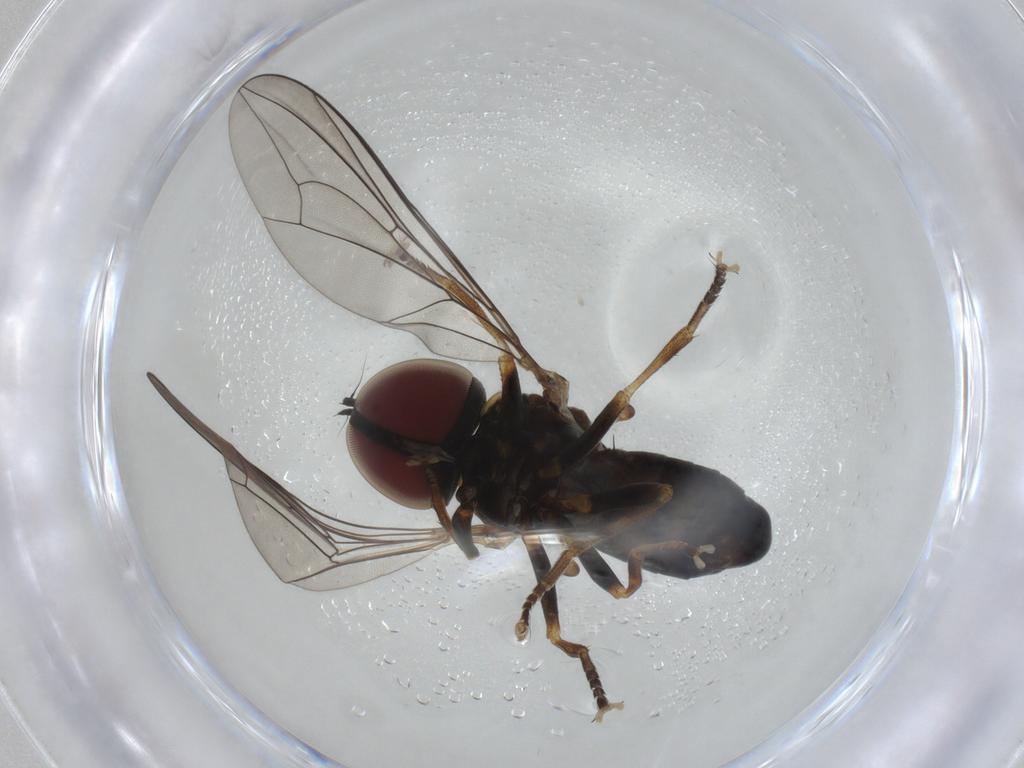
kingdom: Animalia
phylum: Arthropoda
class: Insecta
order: Diptera
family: Pipunculidae
